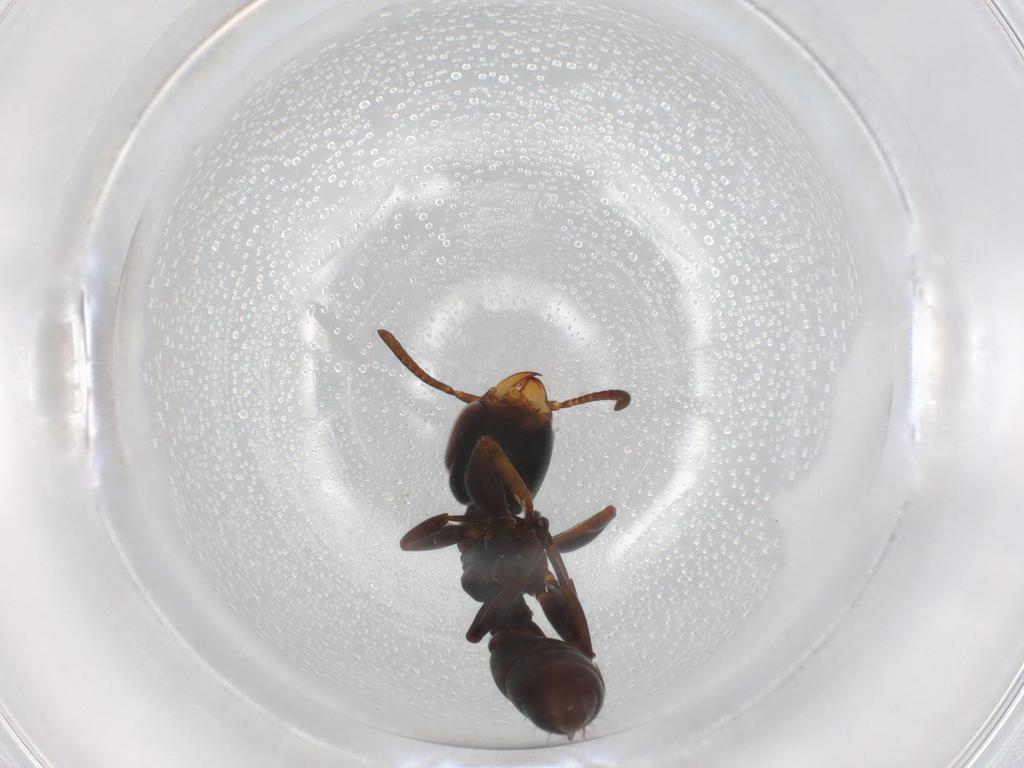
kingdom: Animalia
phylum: Arthropoda
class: Insecta
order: Hymenoptera
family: Formicidae
